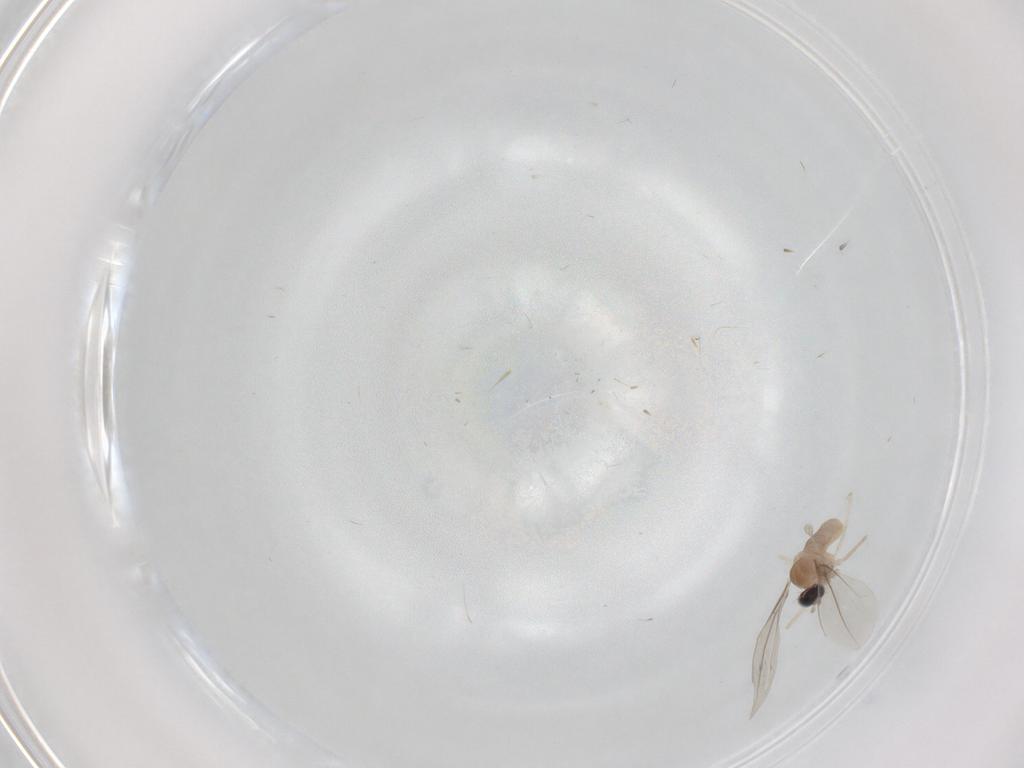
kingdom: Animalia
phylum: Arthropoda
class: Insecta
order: Diptera
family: Cecidomyiidae
